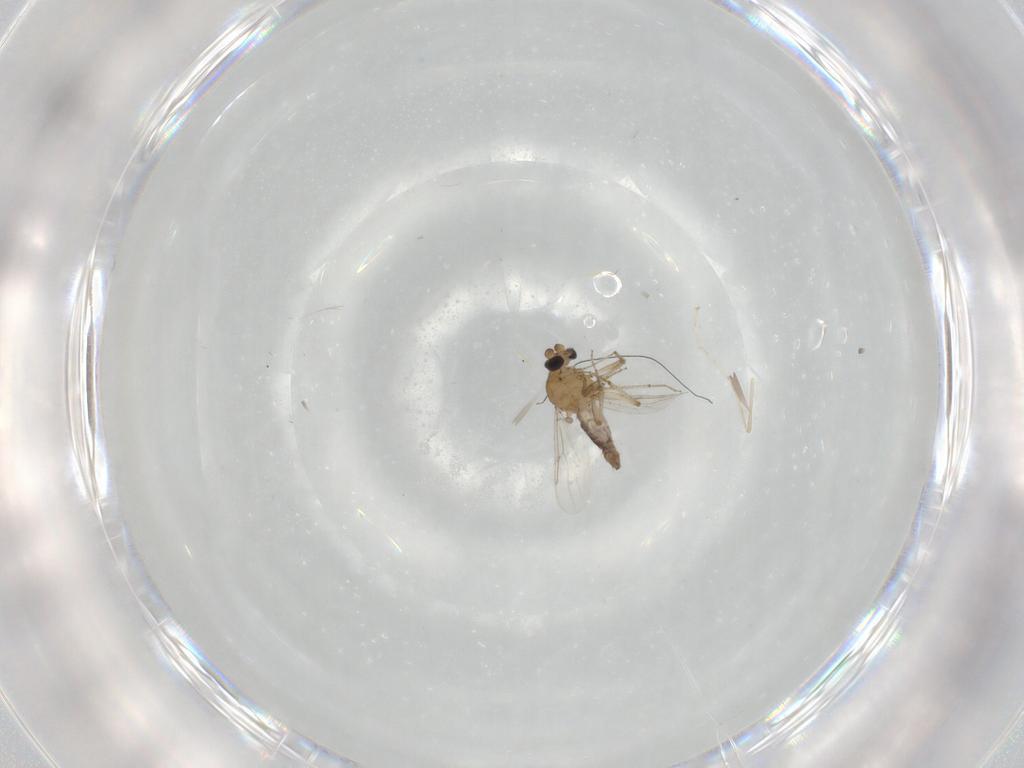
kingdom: Animalia
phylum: Arthropoda
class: Insecta
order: Diptera
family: Ceratopogonidae
